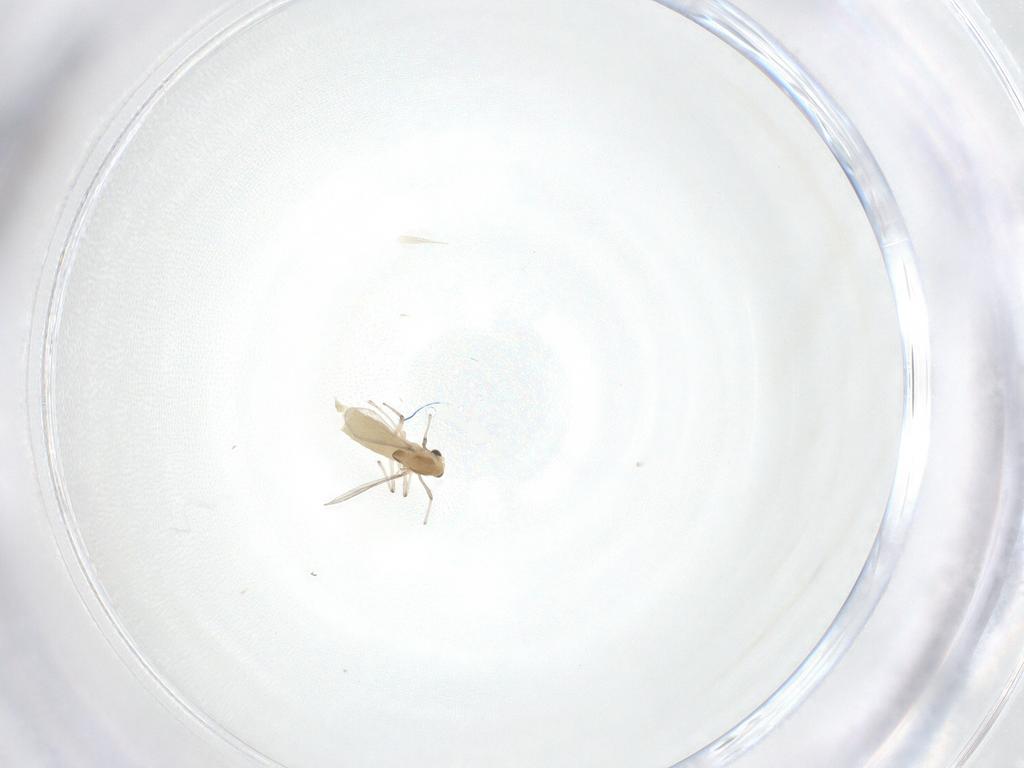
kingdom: Animalia
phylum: Arthropoda
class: Insecta
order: Diptera
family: Chironomidae
